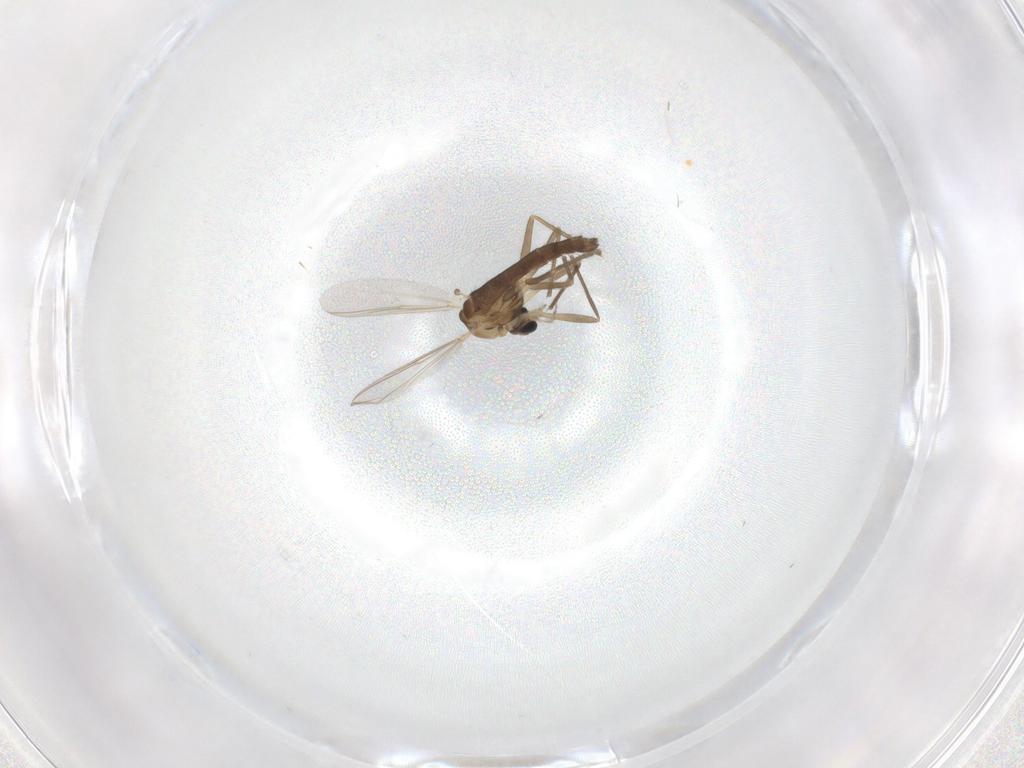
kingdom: Animalia
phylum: Arthropoda
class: Insecta
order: Diptera
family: Chironomidae
